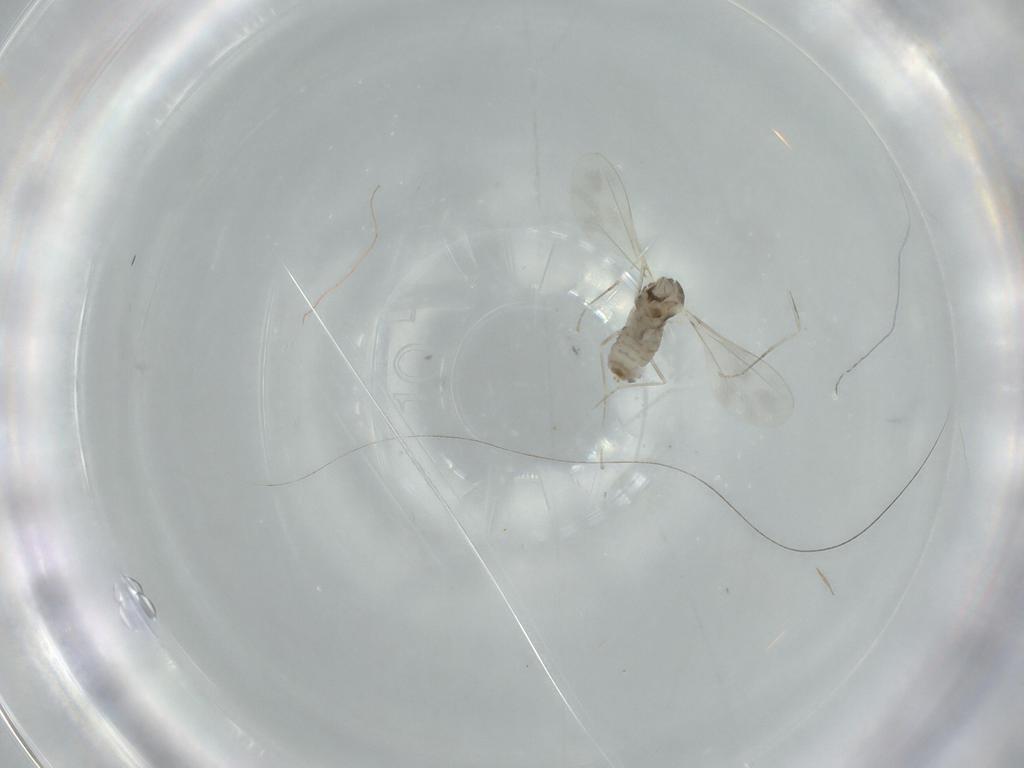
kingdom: Animalia
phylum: Arthropoda
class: Insecta
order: Diptera
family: Cecidomyiidae
